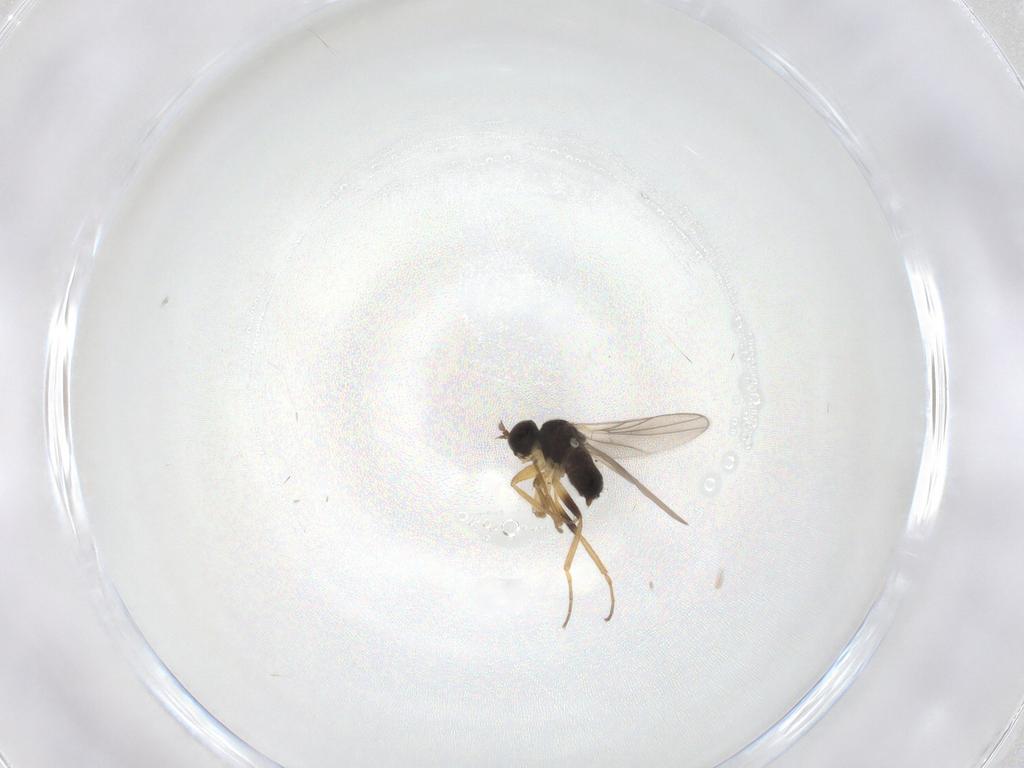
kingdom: Animalia
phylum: Arthropoda
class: Insecta
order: Diptera
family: Hybotidae
